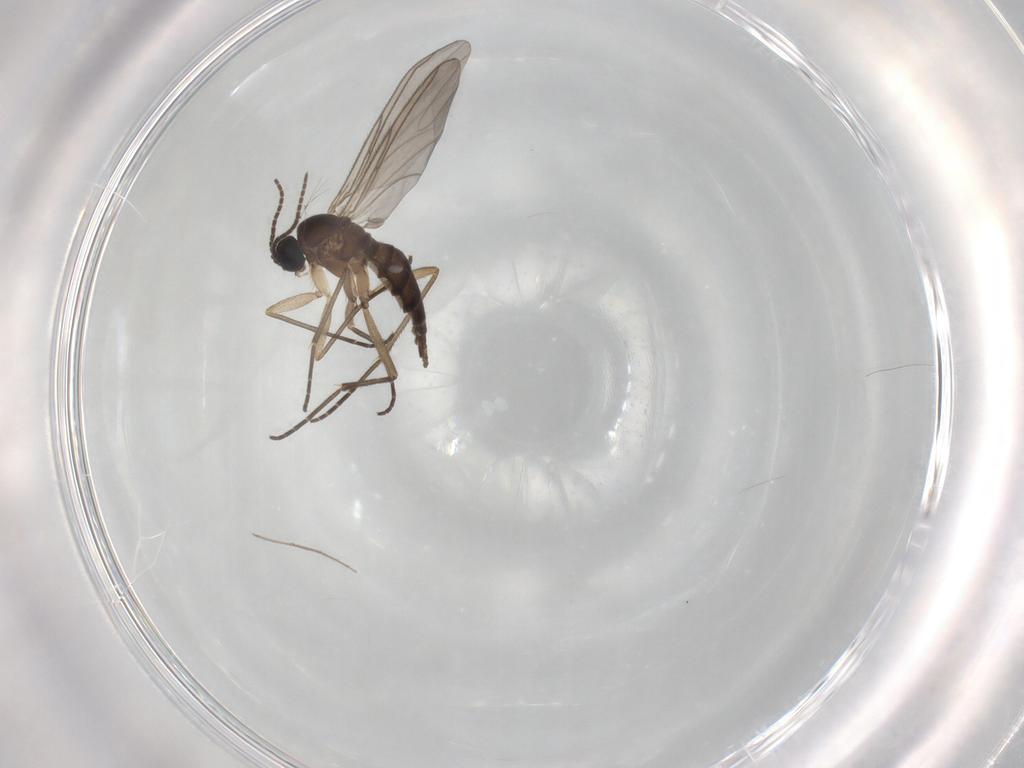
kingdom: Animalia
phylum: Arthropoda
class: Insecta
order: Diptera
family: Sciaridae
